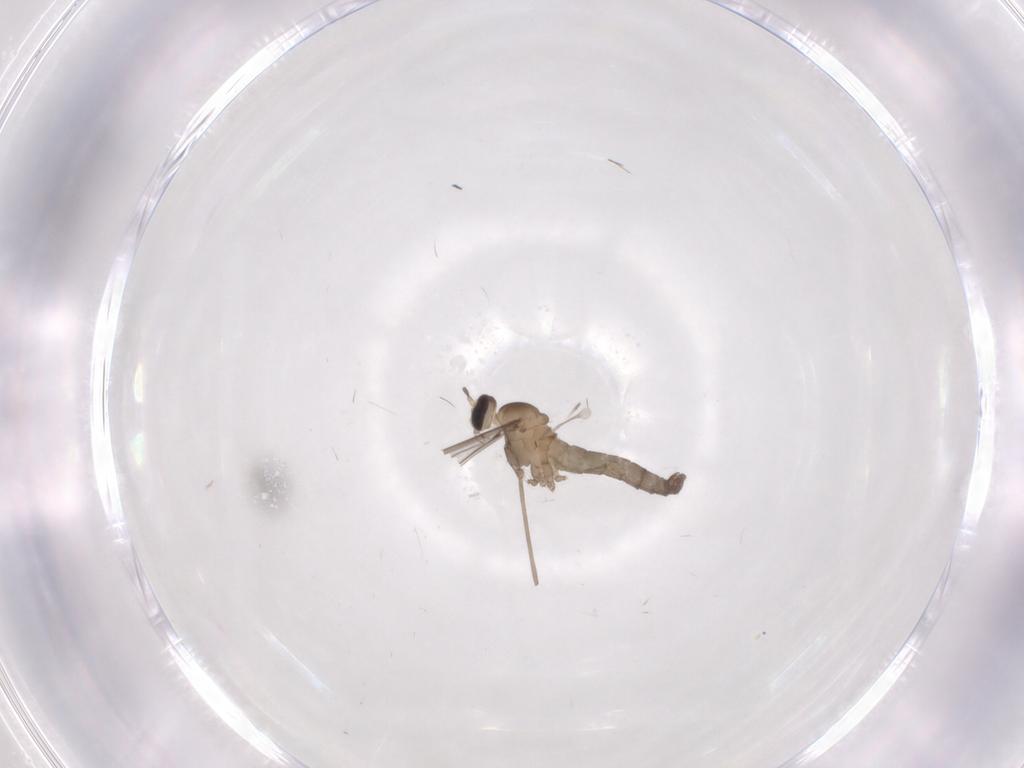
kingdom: Animalia
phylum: Arthropoda
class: Insecta
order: Diptera
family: Cecidomyiidae
